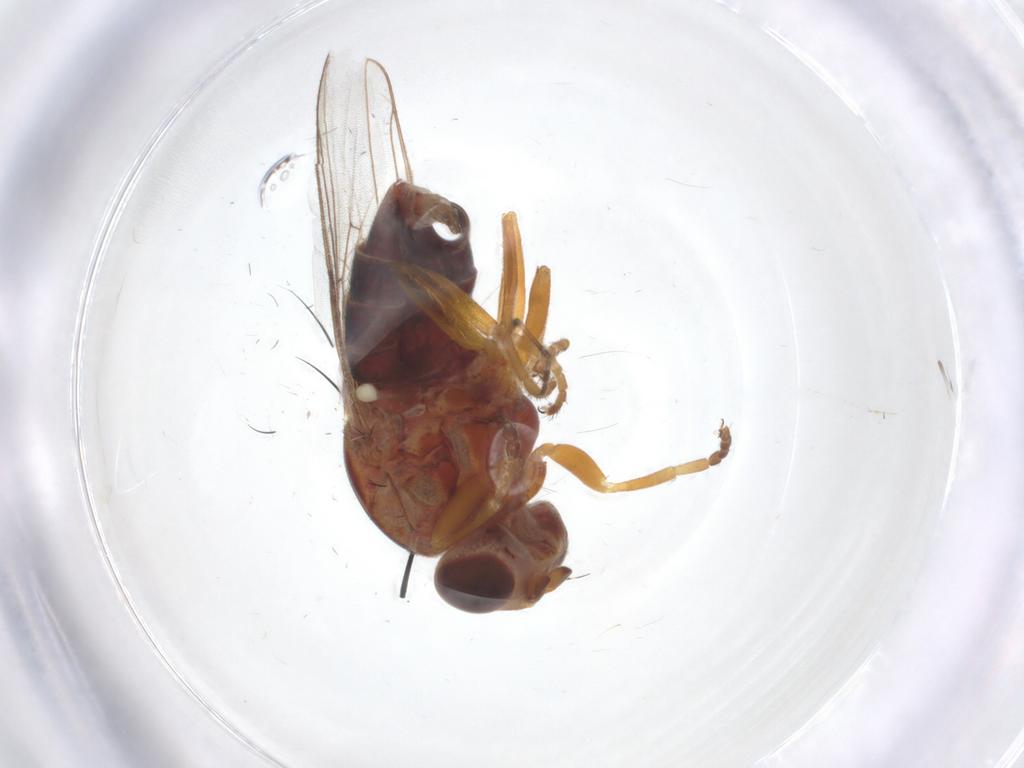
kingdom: Animalia
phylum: Arthropoda
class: Insecta
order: Diptera
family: Chloropidae
